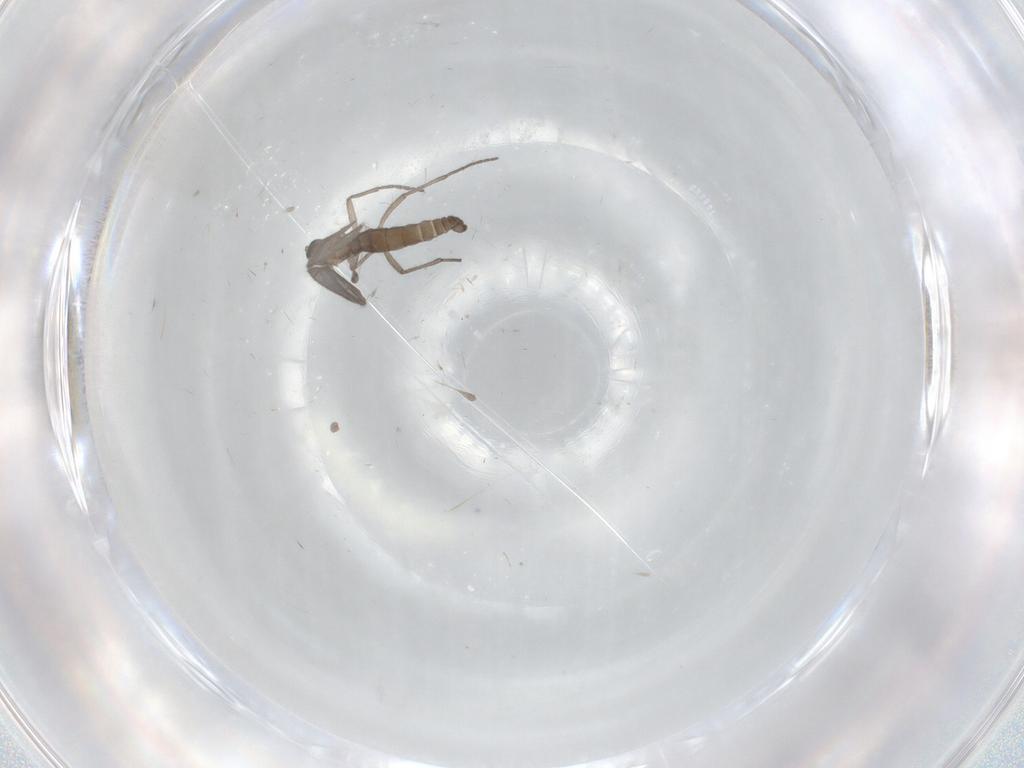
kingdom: Animalia
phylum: Arthropoda
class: Insecta
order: Diptera
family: Sciaridae
